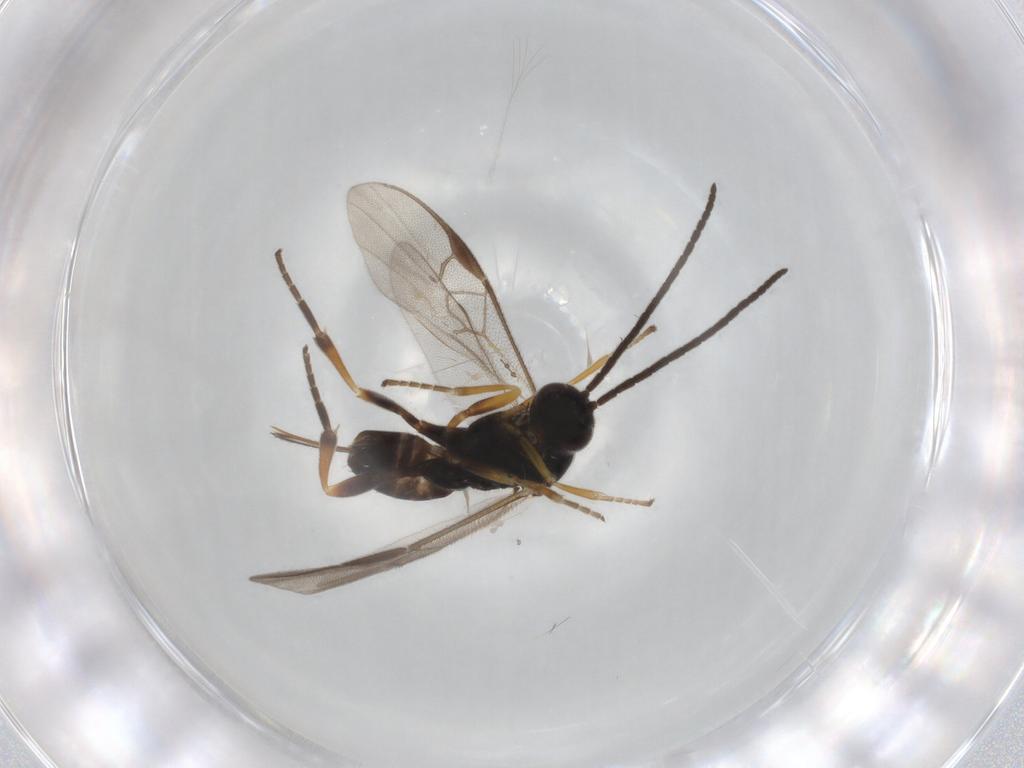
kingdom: Animalia
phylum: Arthropoda
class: Insecta
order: Hymenoptera
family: Braconidae
